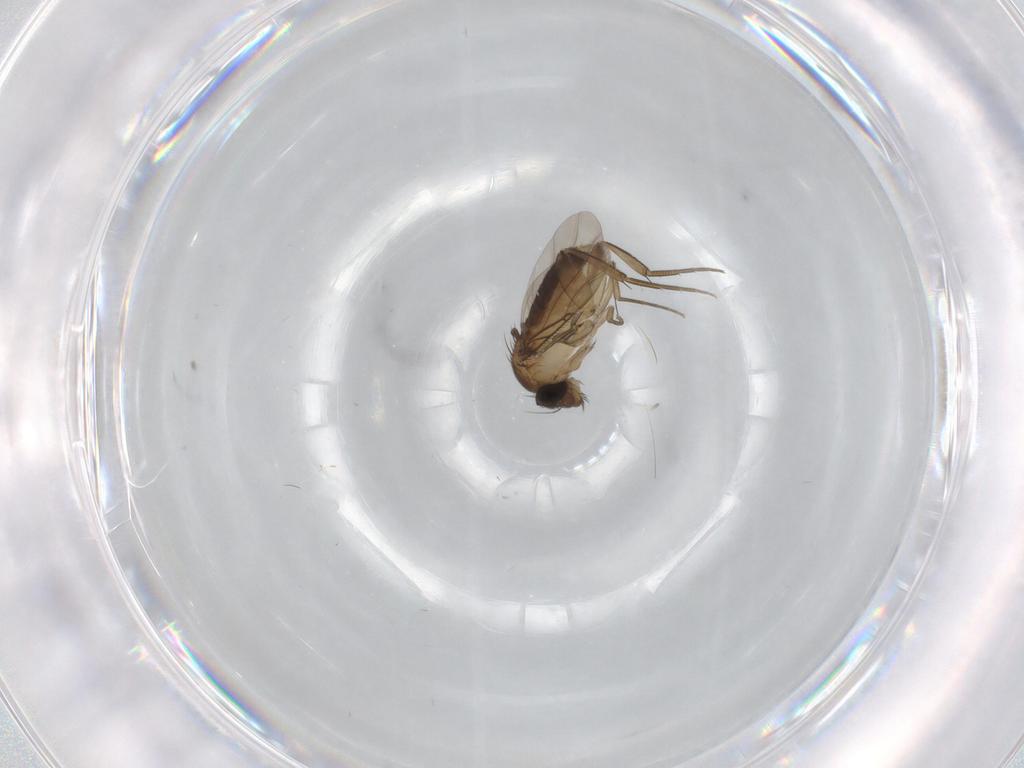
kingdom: Animalia
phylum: Arthropoda
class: Insecta
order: Diptera
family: Phoridae
